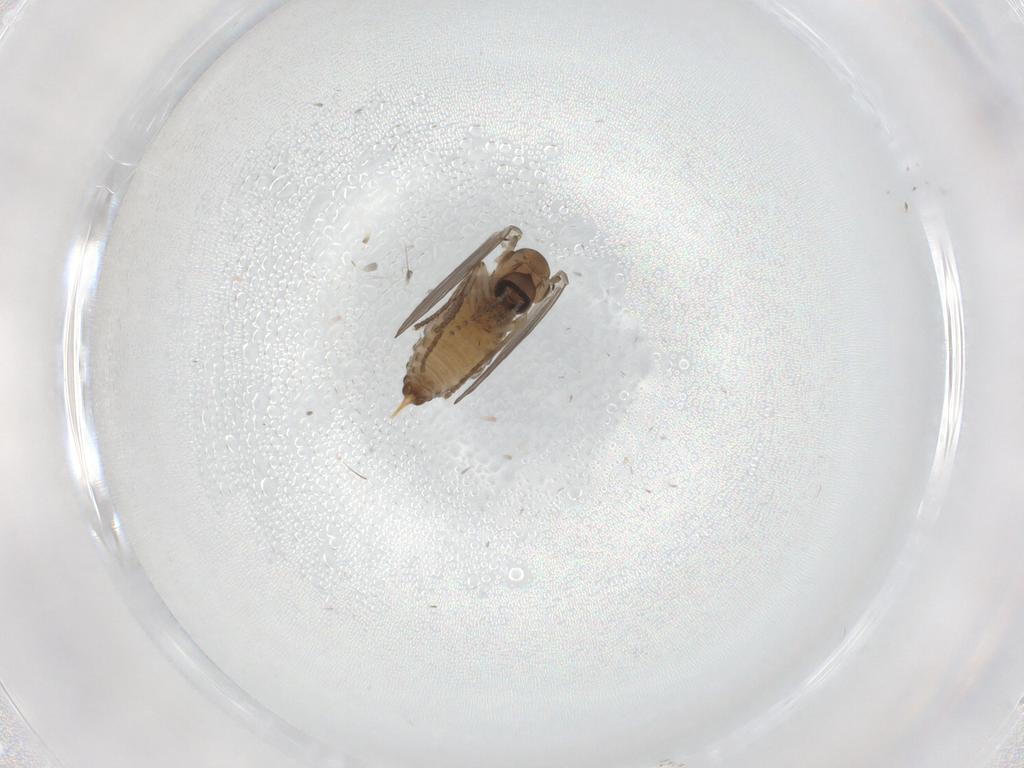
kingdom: Animalia
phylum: Arthropoda
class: Insecta
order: Diptera
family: Psychodidae
